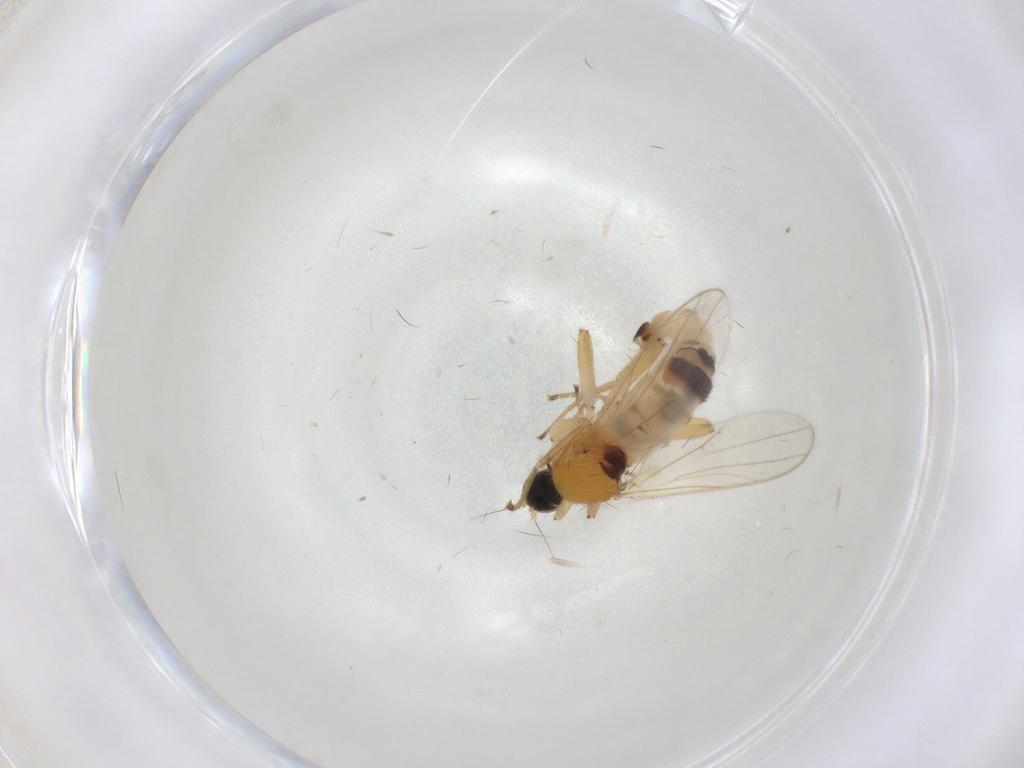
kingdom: Animalia
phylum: Arthropoda
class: Insecta
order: Diptera
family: Hybotidae
